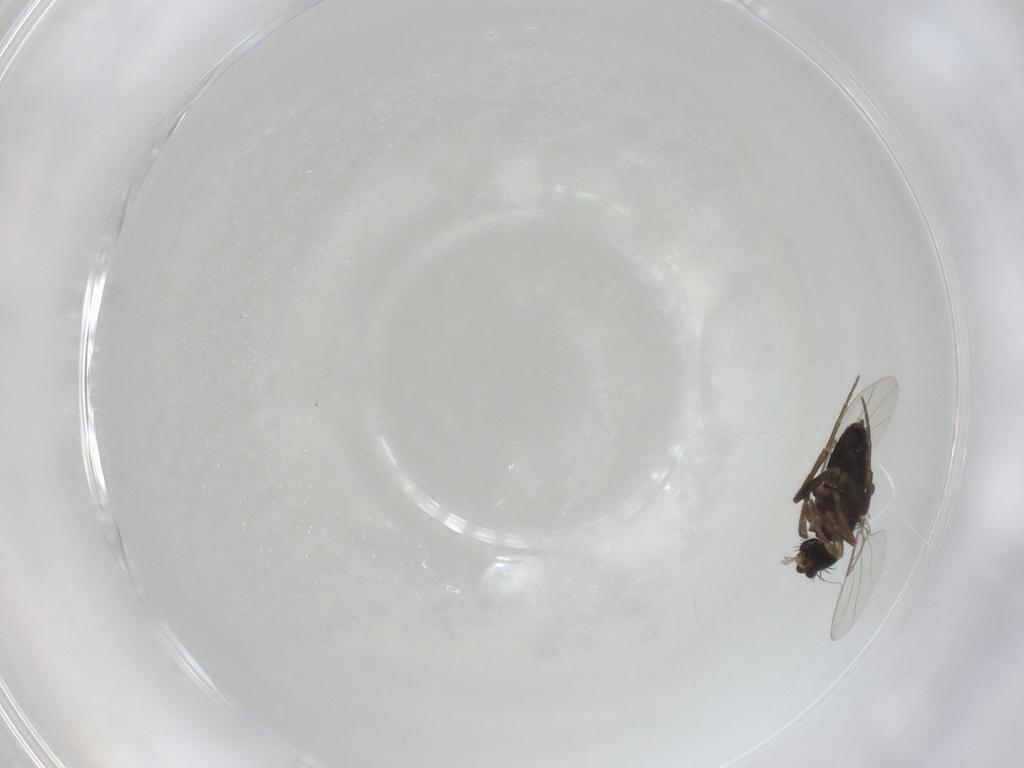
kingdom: Animalia
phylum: Arthropoda
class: Insecta
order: Diptera
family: Phoridae
